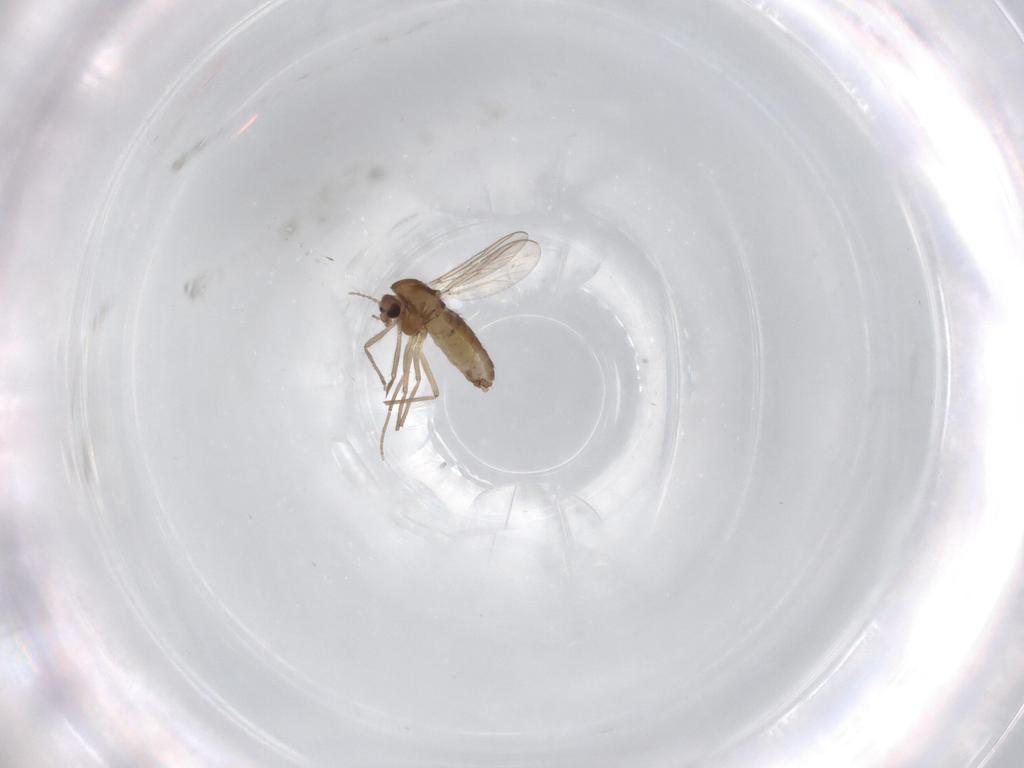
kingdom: Animalia
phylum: Arthropoda
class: Insecta
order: Diptera
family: Chironomidae
